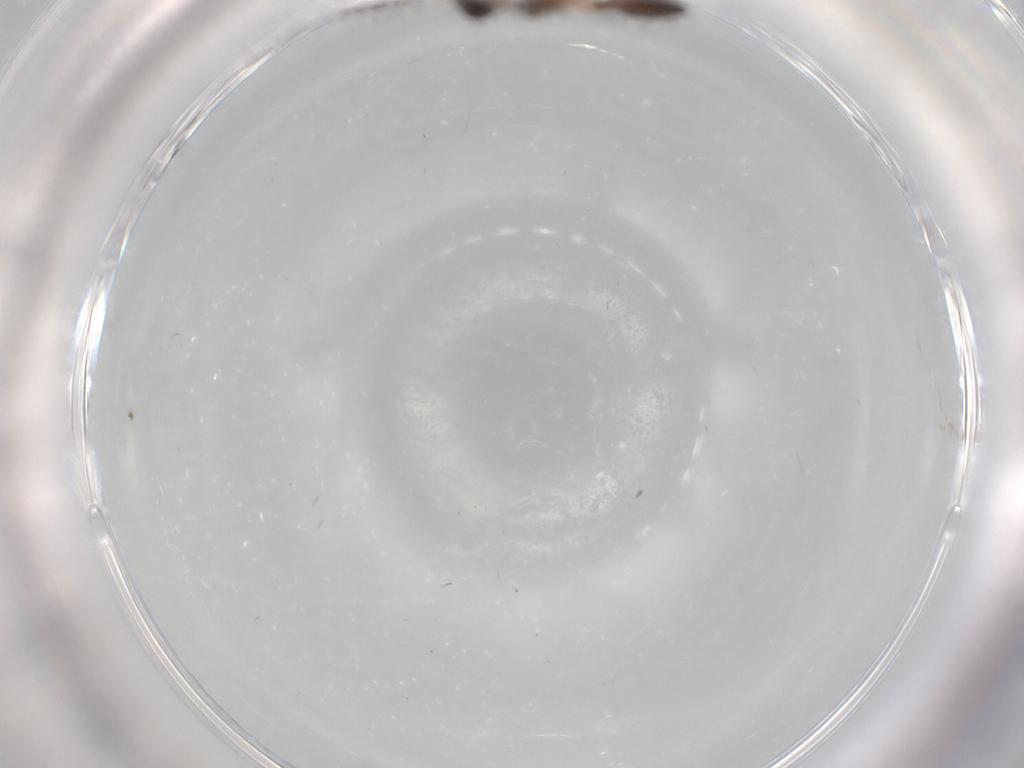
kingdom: Animalia
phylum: Arthropoda
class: Insecta
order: Hymenoptera
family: Scelionidae
